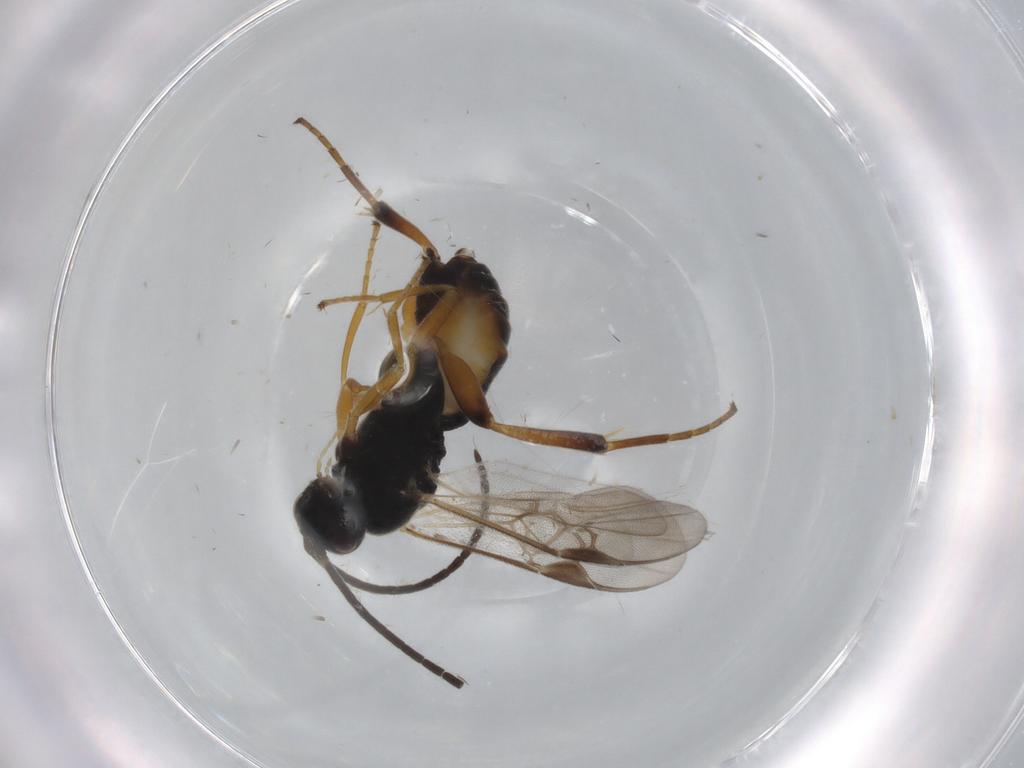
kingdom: Animalia
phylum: Arthropoda
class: Insecta
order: Hymenoptera
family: Braconidae
